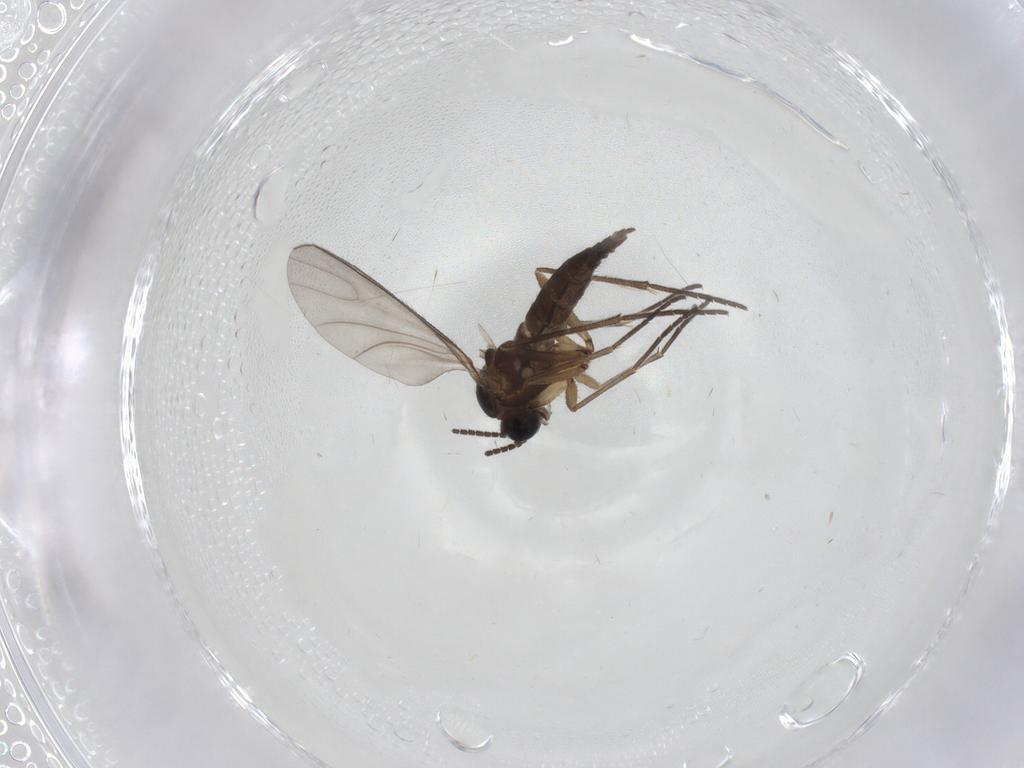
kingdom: Animalia
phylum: Arthropoda
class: Insecta
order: Diptera
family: Sciaridae
